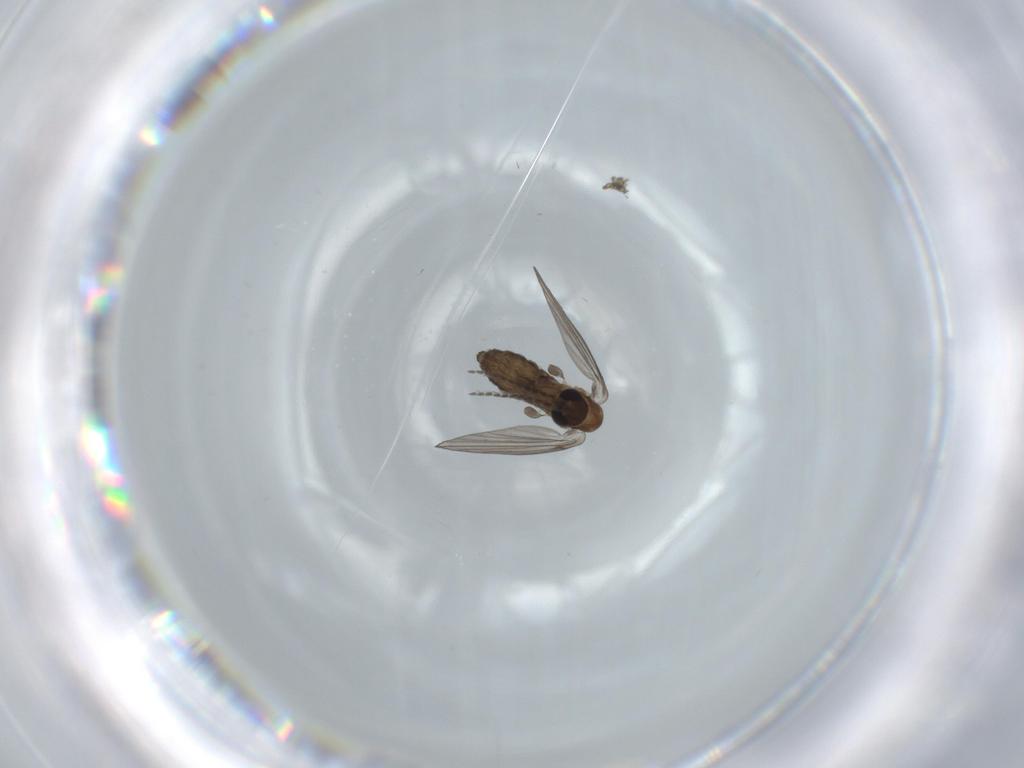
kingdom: Animalia
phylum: Arthropoda
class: Insecta
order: Diptera
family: Psychodidae
